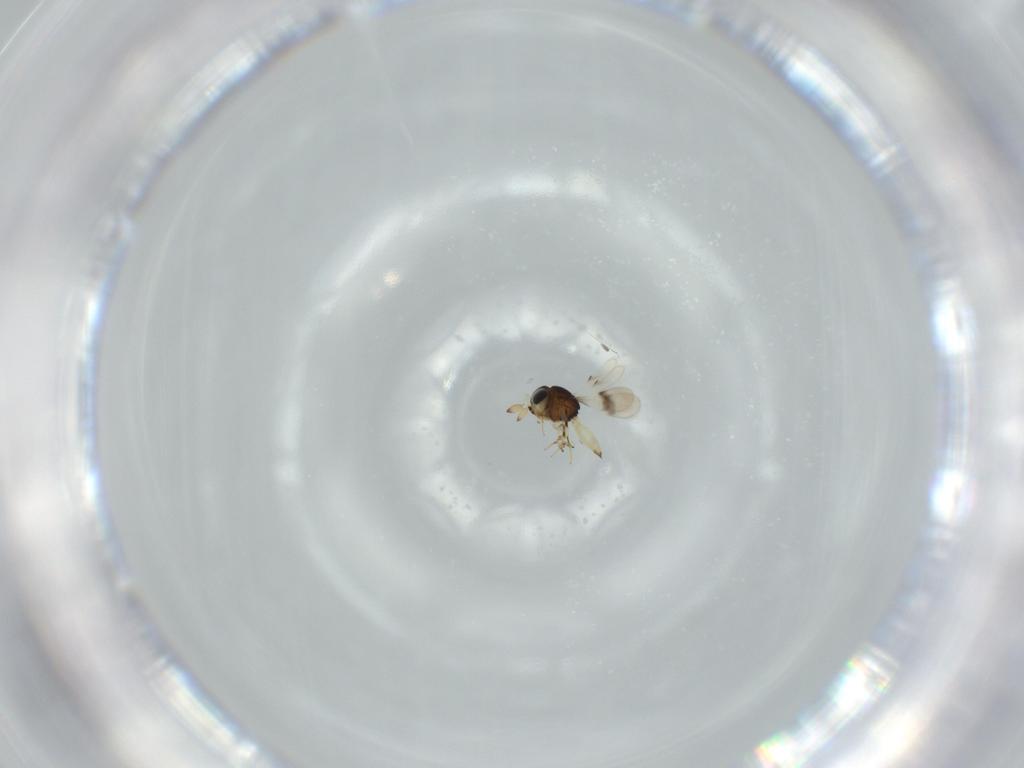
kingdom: Animalia
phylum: Arthropoda
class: Insecta
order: Hymenoptera
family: Scelionidae
